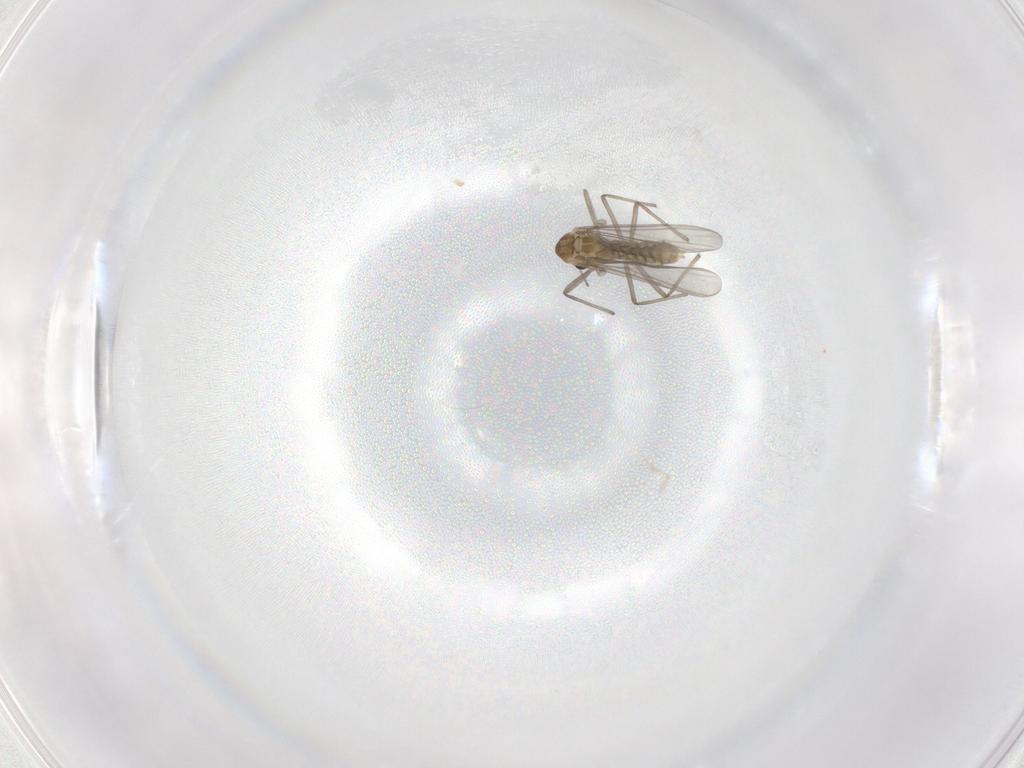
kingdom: Animalia
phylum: Arthropoda
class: Insecta
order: Diptera
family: Chironomidae
